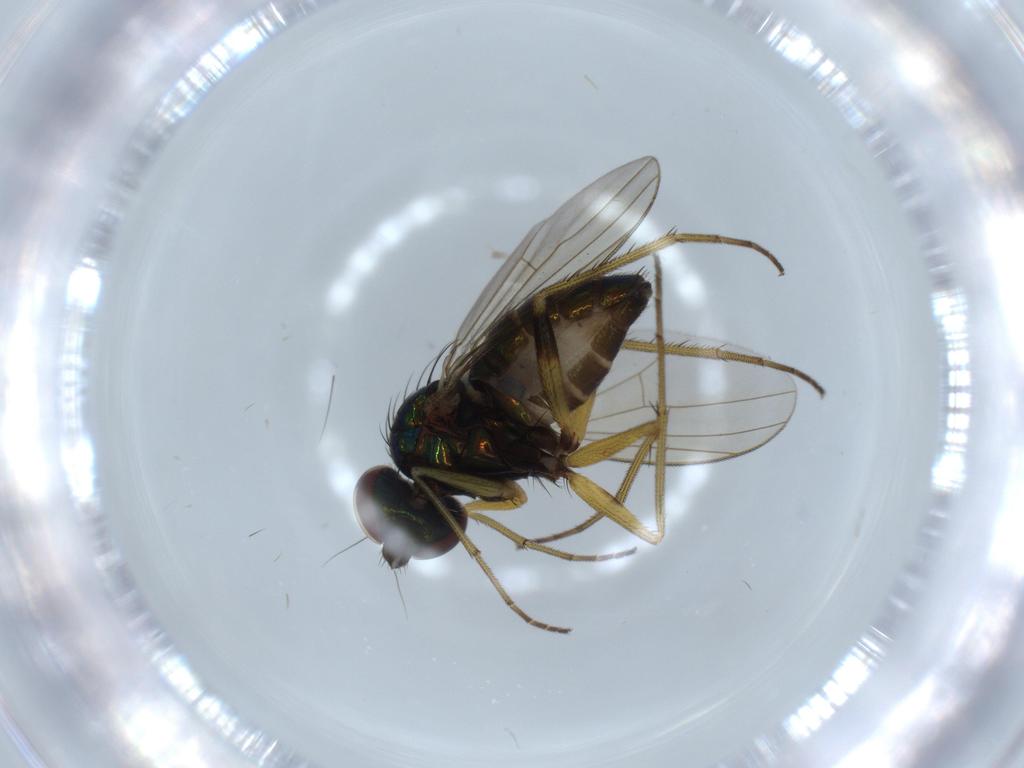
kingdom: Animalia
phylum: Arthropoda
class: Insecta
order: Diptera
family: Dolichopodidae
